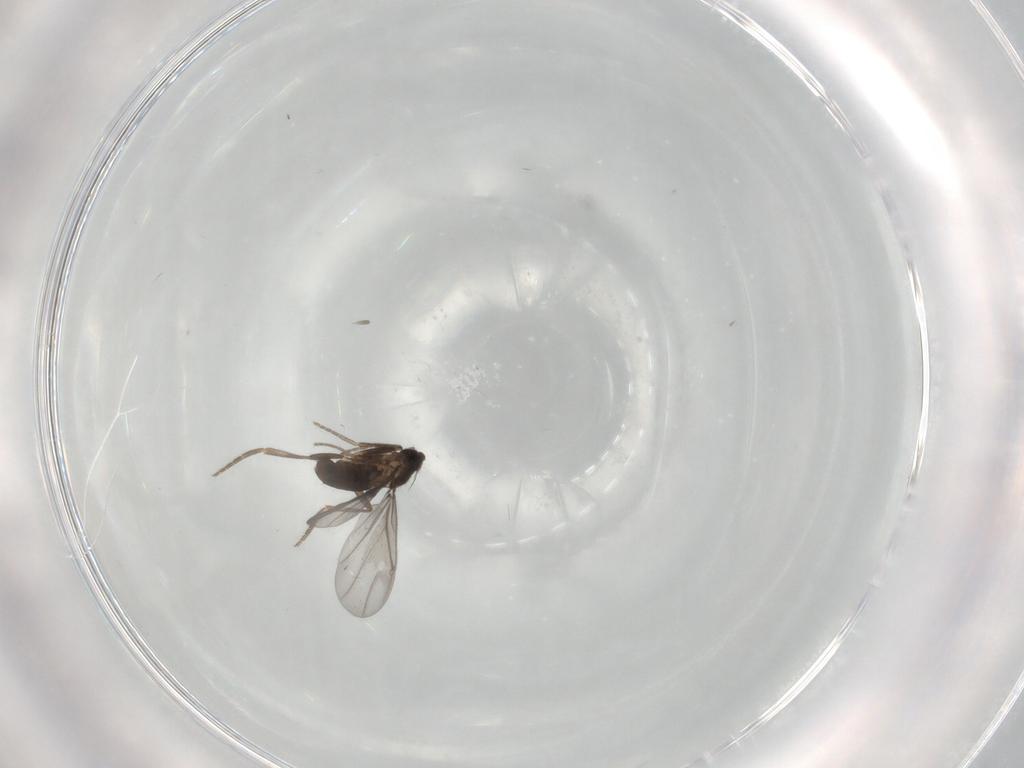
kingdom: Animalia
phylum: Arthropoda
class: Insecta
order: Diptera
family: Phoridae
